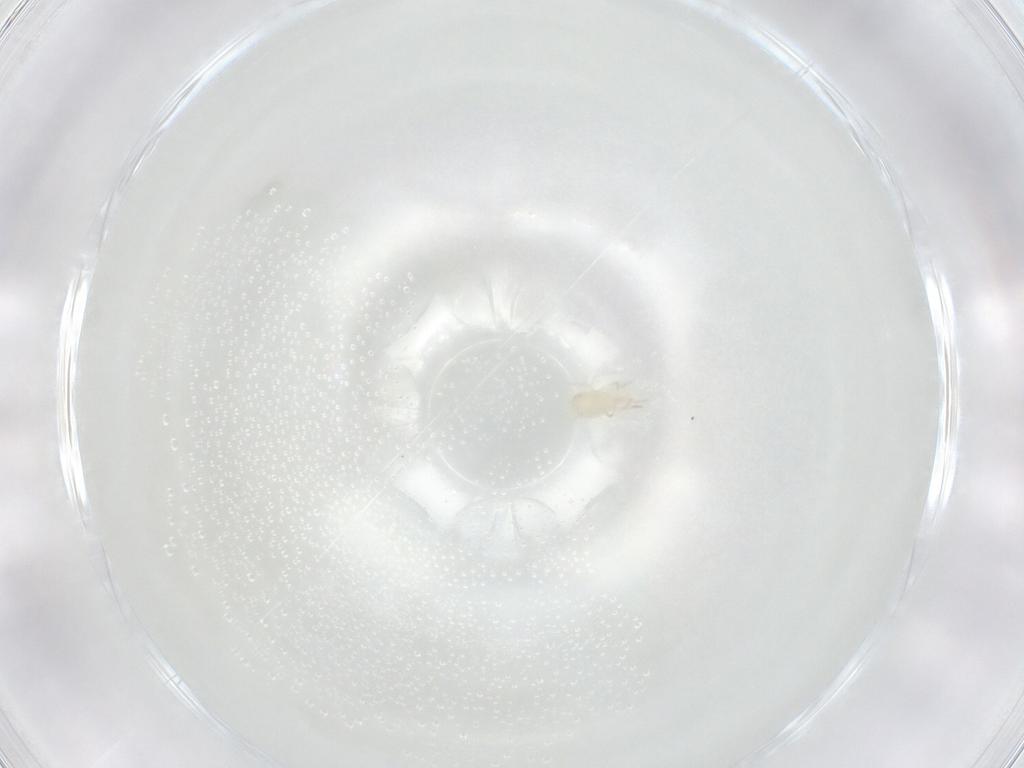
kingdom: Animalia
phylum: Arthropoda
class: Arachnida
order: Mesostigmata
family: Phytoseiidae
